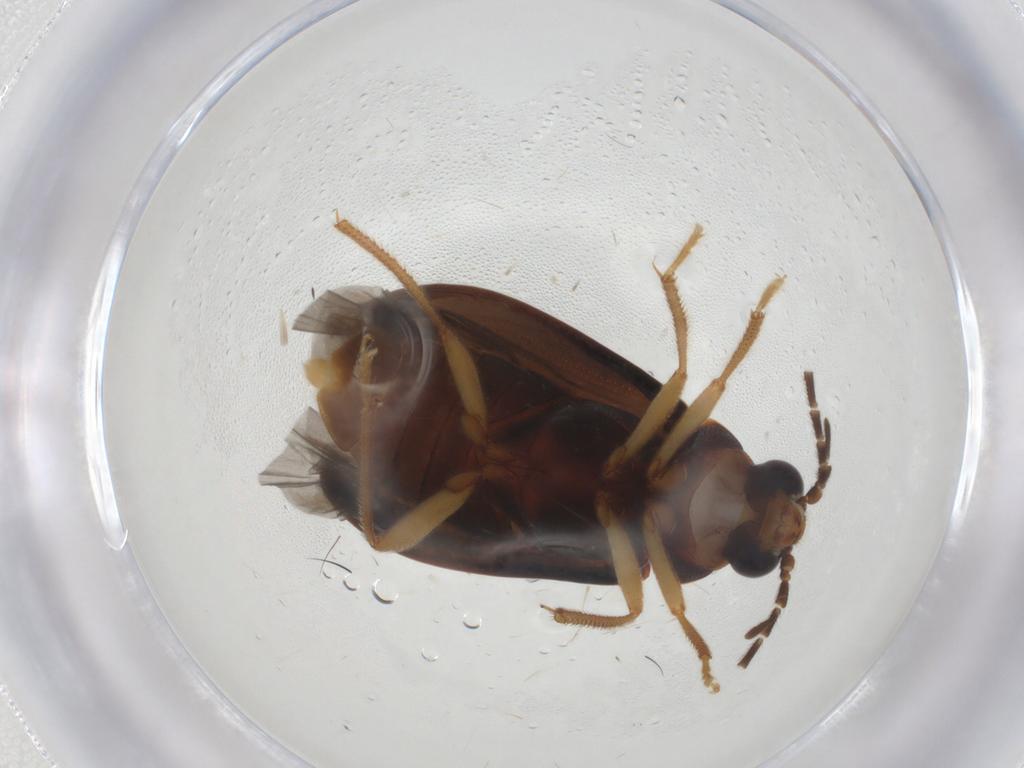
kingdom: Animalia
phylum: Arthropoda
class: Insecta
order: Coleoptera
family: Ptilodactylidae
